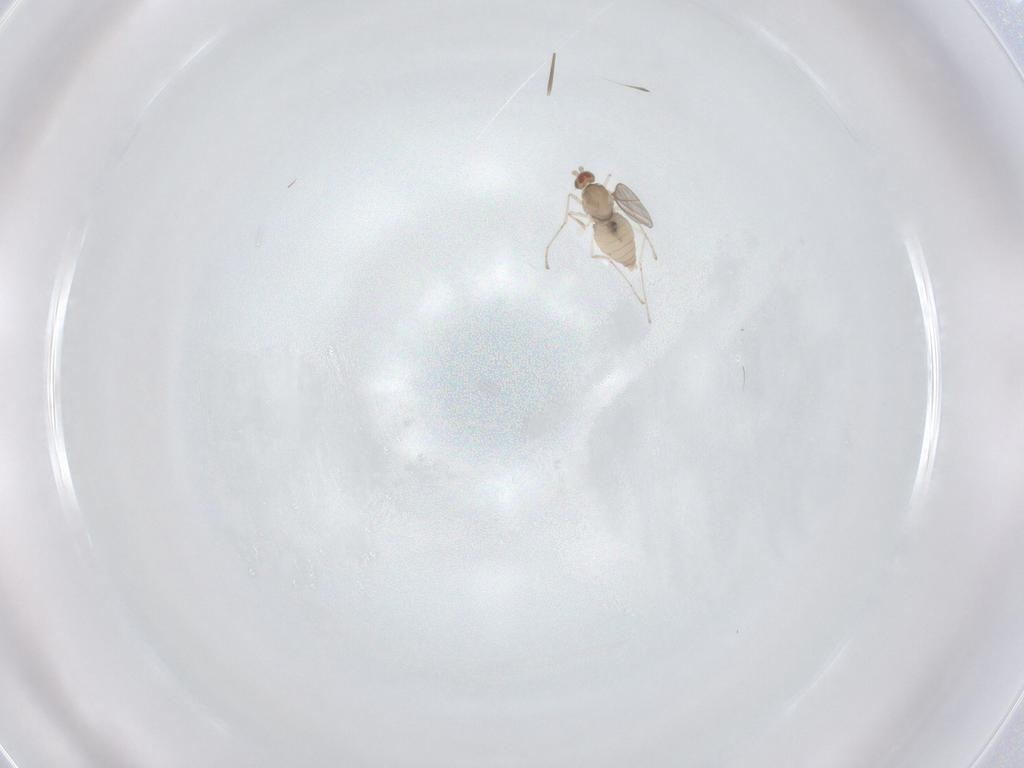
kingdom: Animalia
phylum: Arthropoda
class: Insecta
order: Diptera
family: Cecidomyiidae
